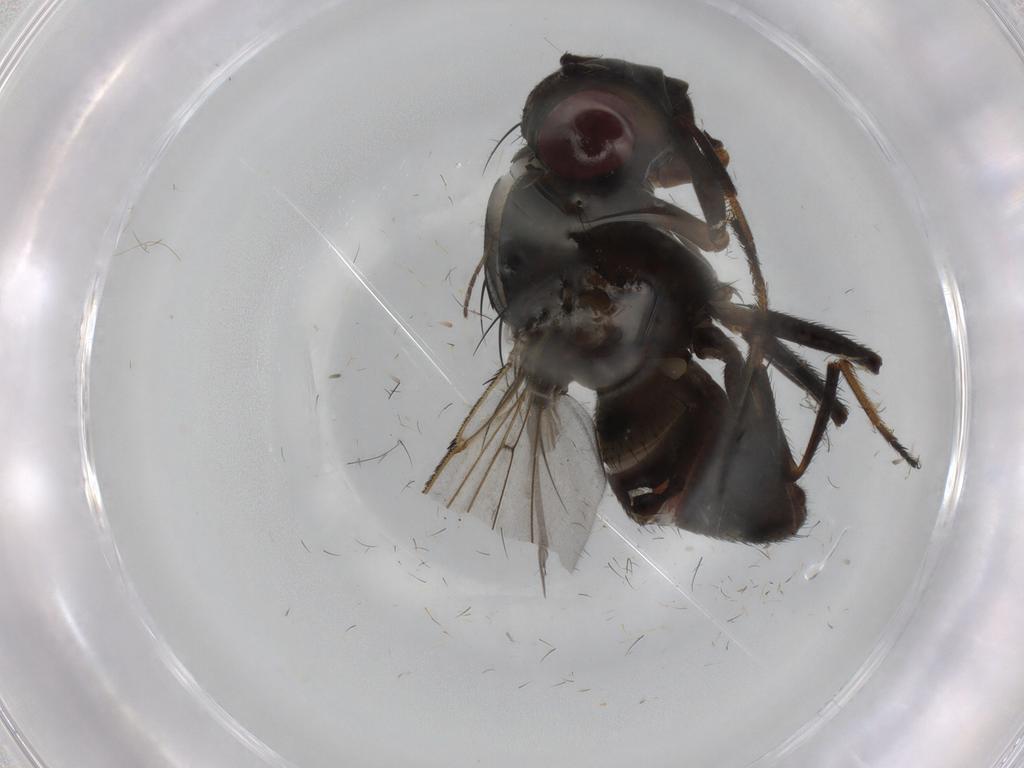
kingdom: Animalia
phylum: Arthropoda
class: Insecta
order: Diptera
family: Ephydridae
